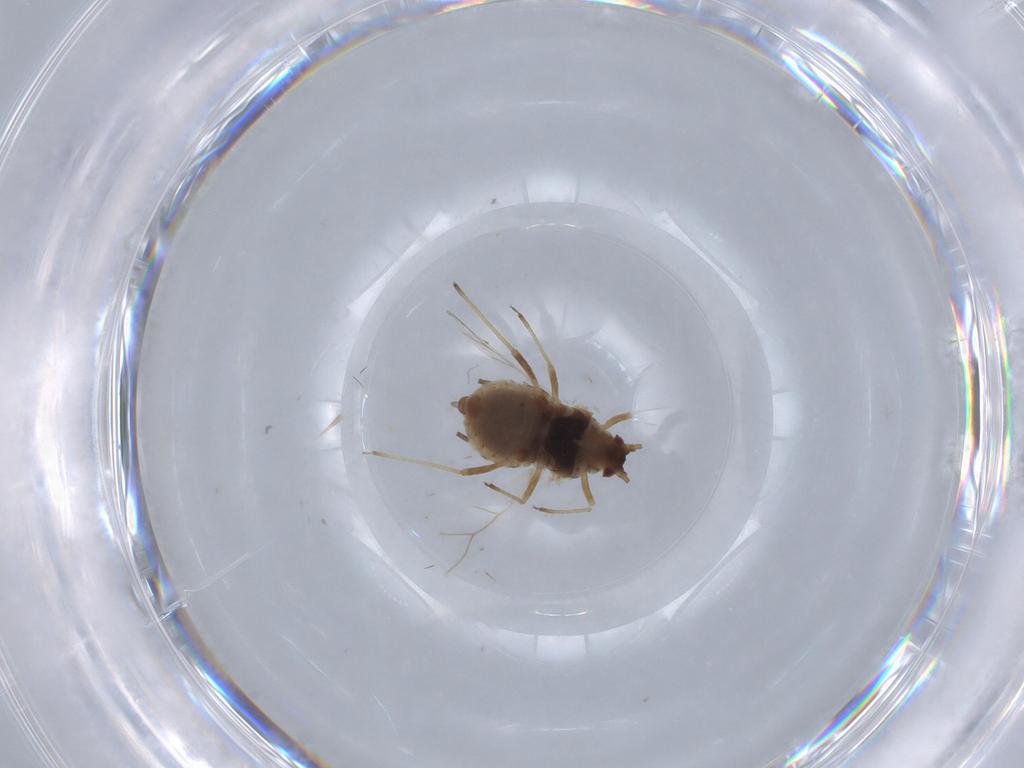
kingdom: Animalia
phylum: Arthropoda
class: Insecta
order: Hemiptera
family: Aphididae
